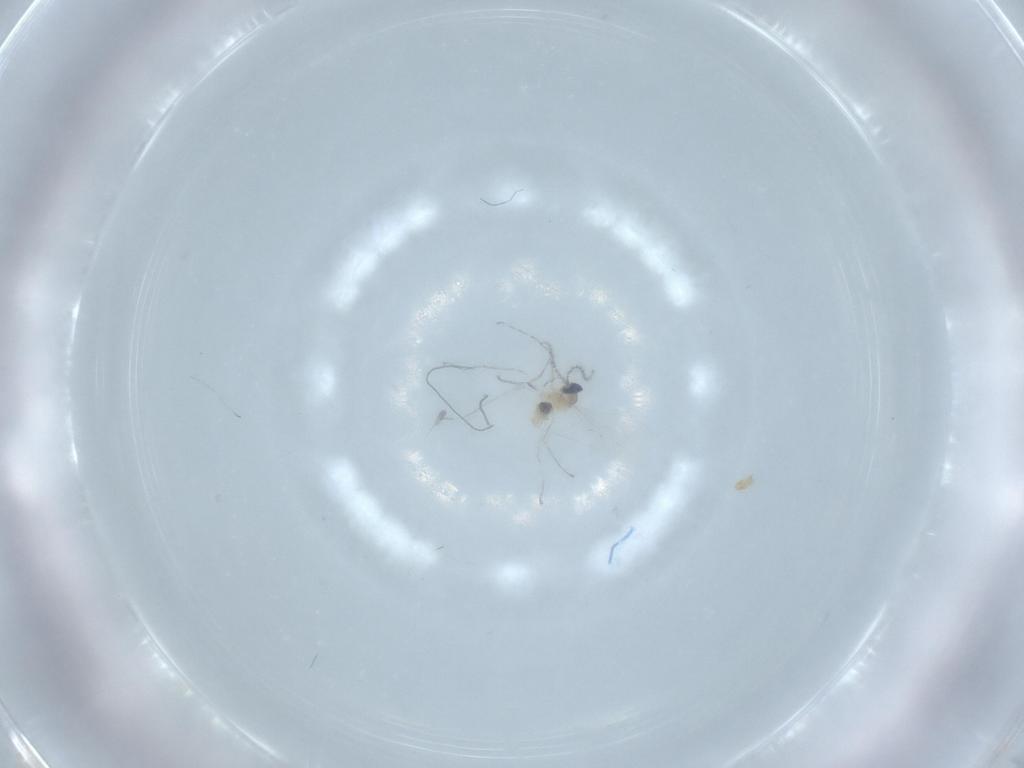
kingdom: Animalia
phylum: Arthropoda
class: Insecta
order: Diptera
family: Cecidomyiidae
